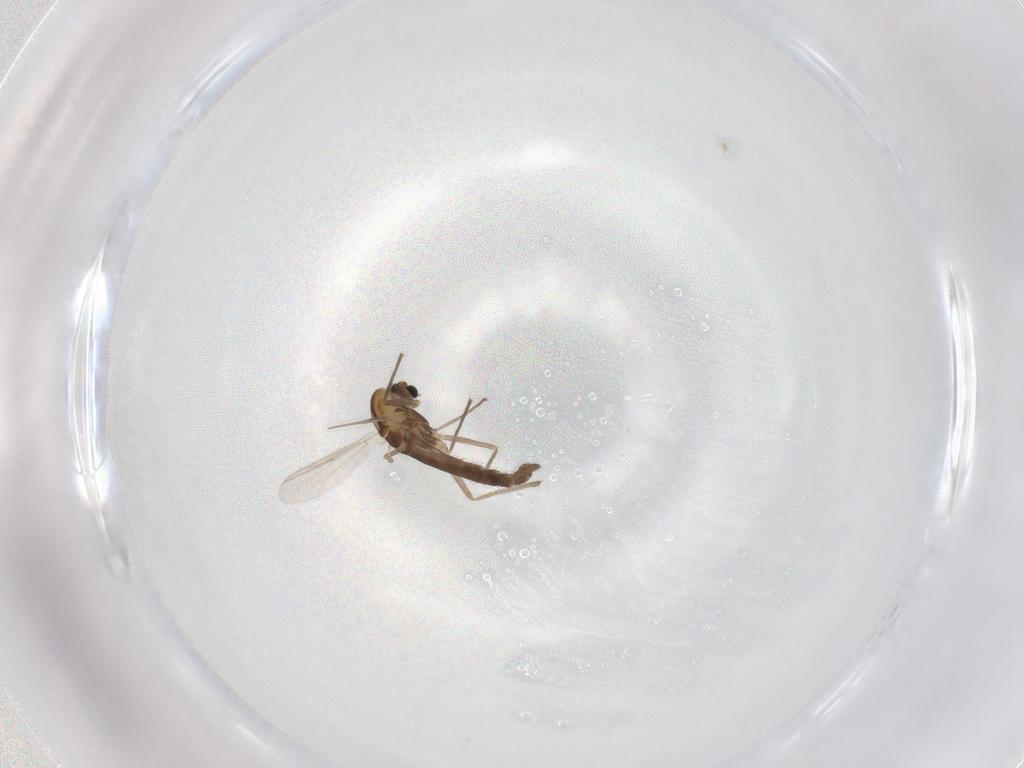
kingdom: Animalia
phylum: Arthropoda
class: Insecta
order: Diptera
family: Chironomidae
